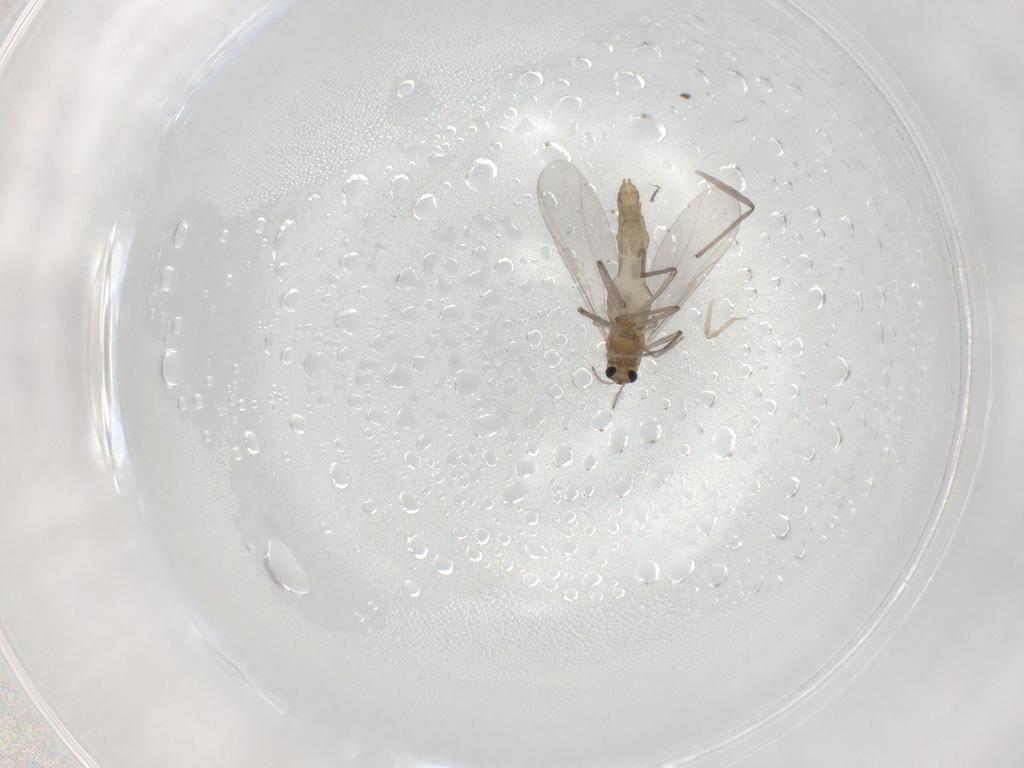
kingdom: Animalia
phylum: Arthropoda
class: Insecta
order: Diptera
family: Chironomidae
